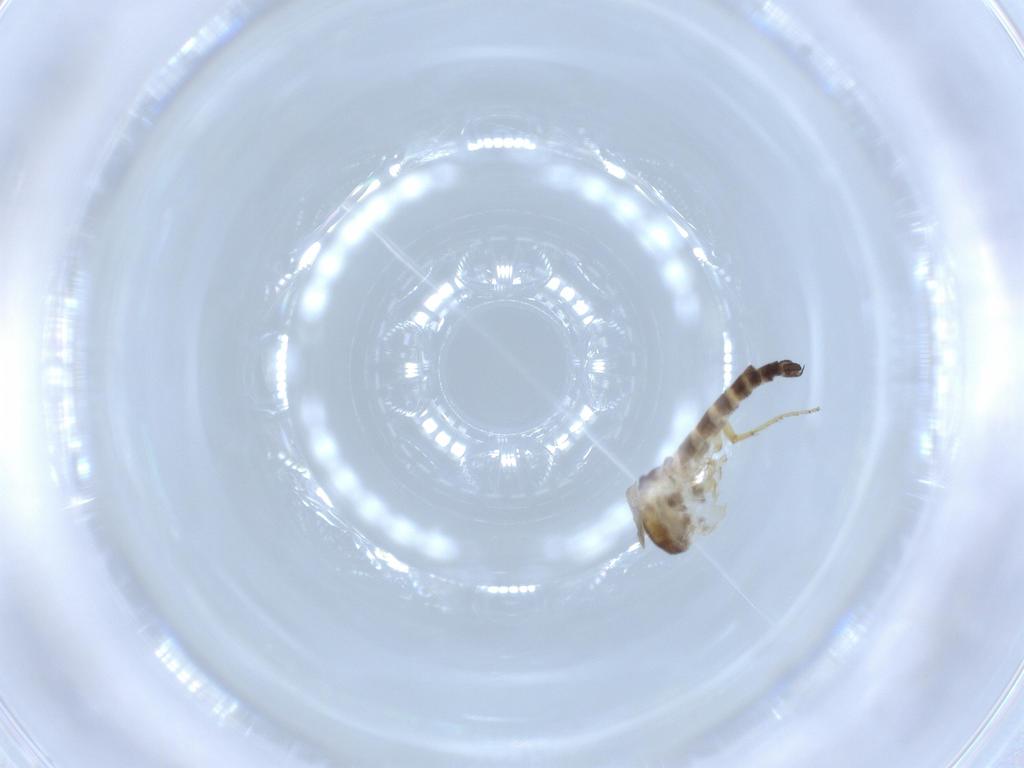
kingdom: Animalia
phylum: Arthropoda
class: Insecta
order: Diptera
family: Ceratopogonidae
